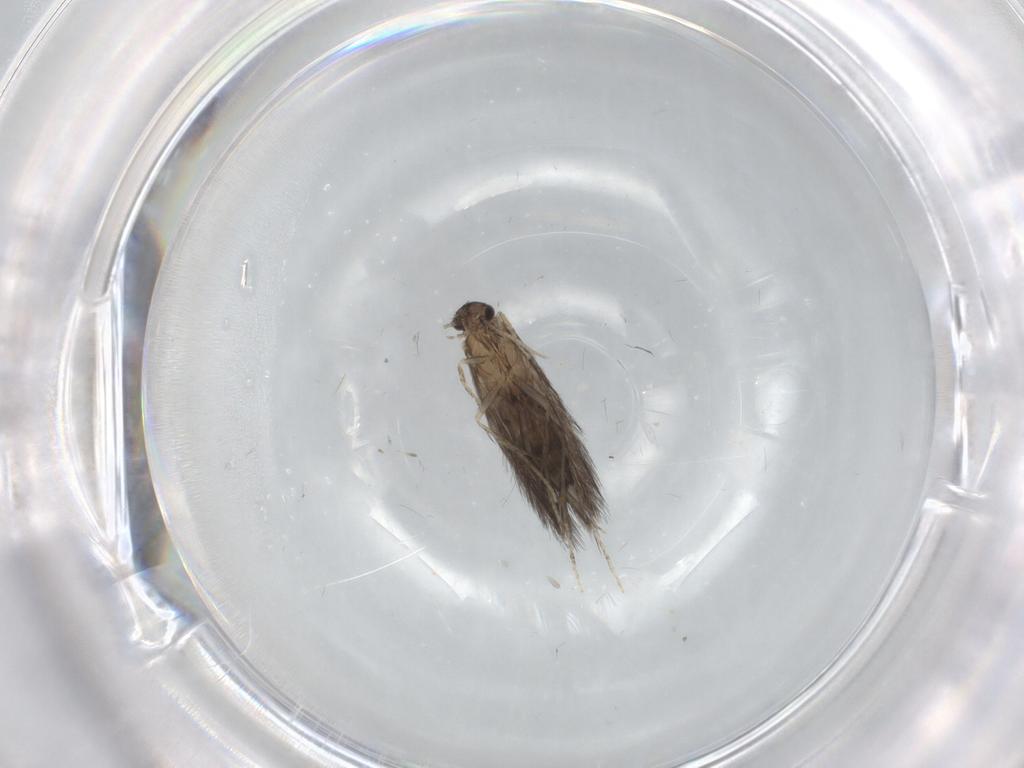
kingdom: Animalia
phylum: Arthropoda
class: Insecta
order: Trichoptera
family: Hydroptilidae
